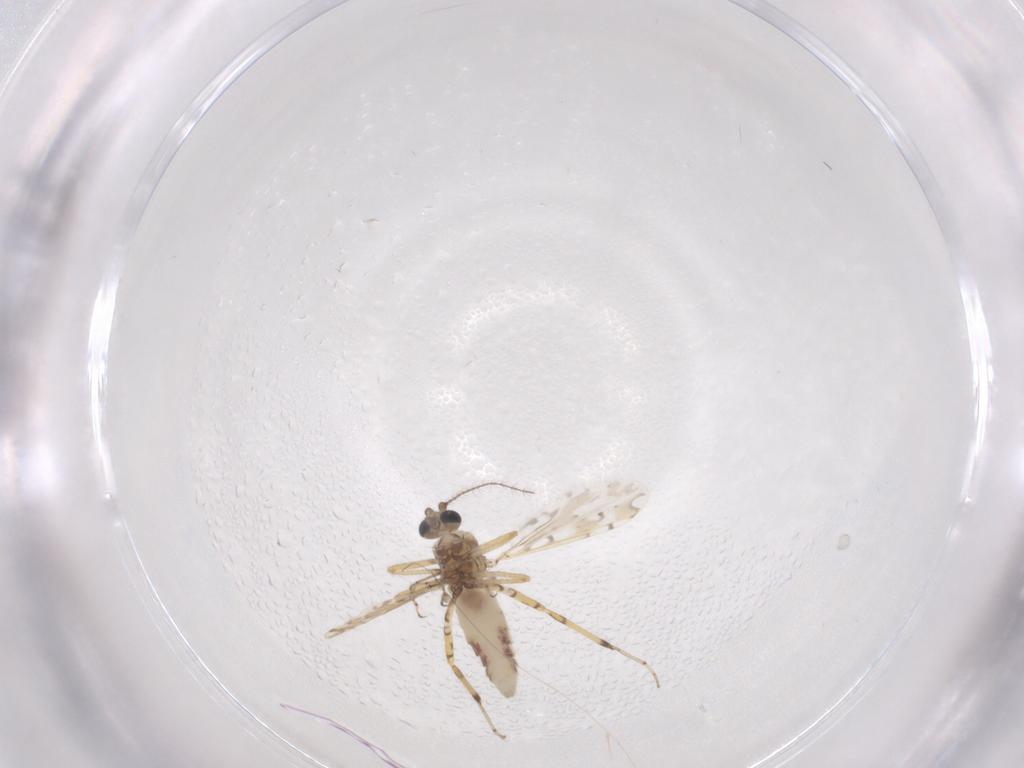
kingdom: Animalia
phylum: Arthropoda
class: Insecta
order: Diptera
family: Ceratopogonidae
